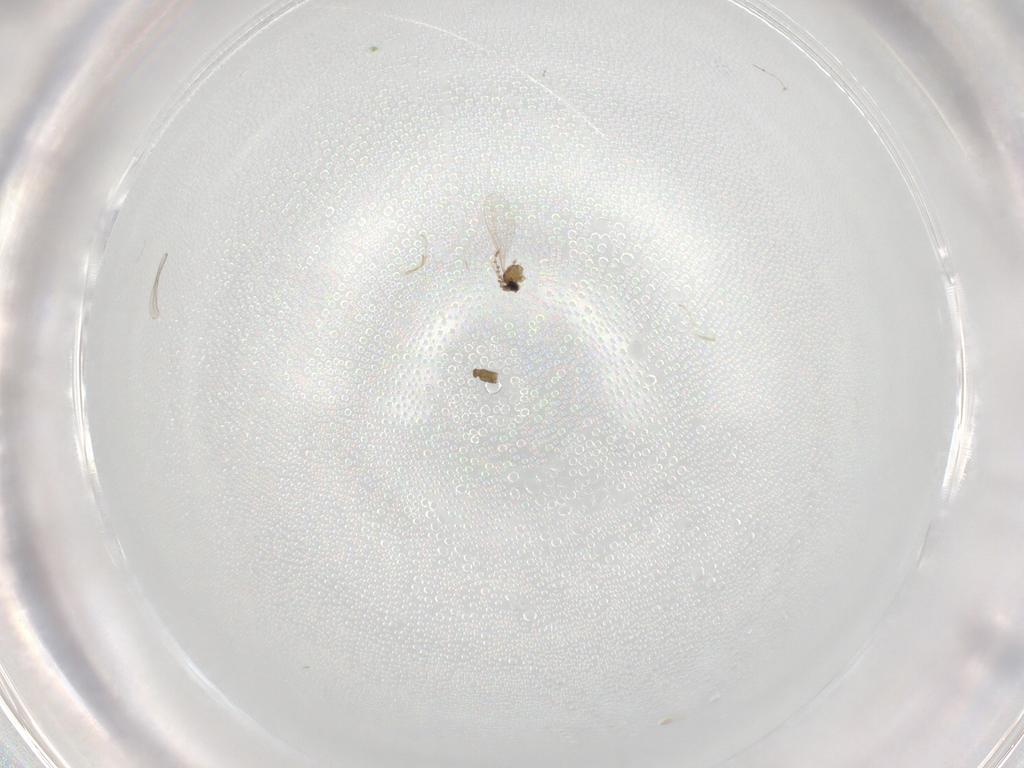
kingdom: Animalia
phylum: Arthropoda
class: Insecta
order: Diptera
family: Cecidomyiidae
